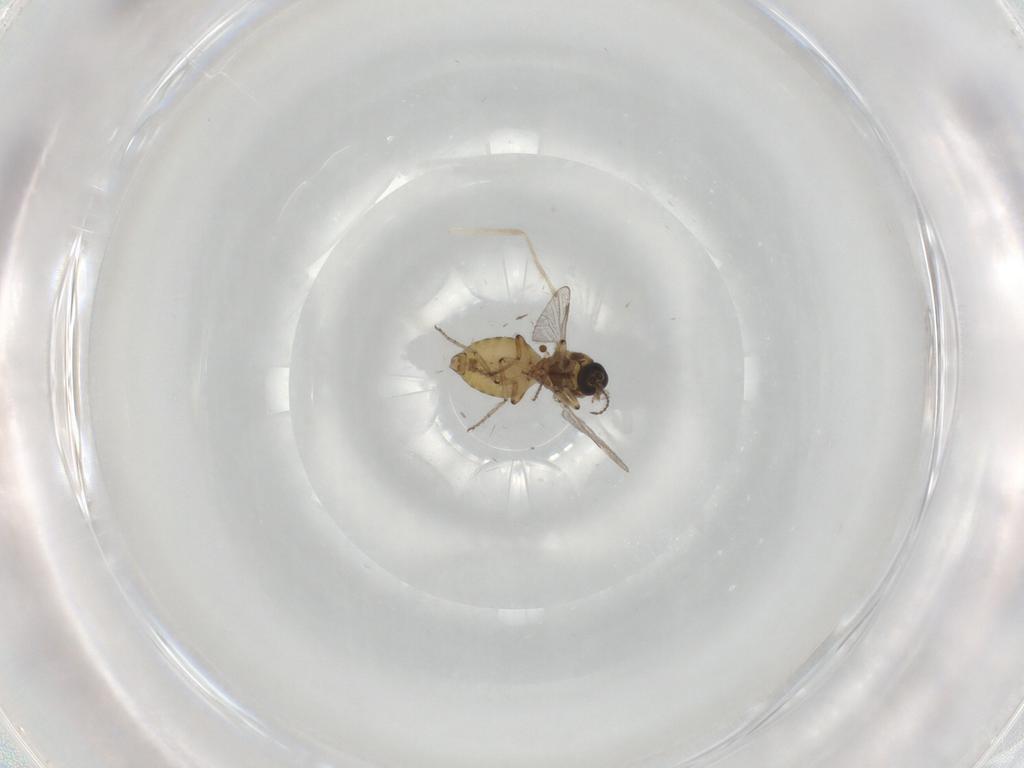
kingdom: Animalia
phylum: Arthropoda
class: Insecta
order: Diptera
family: Ceratopogonidae
